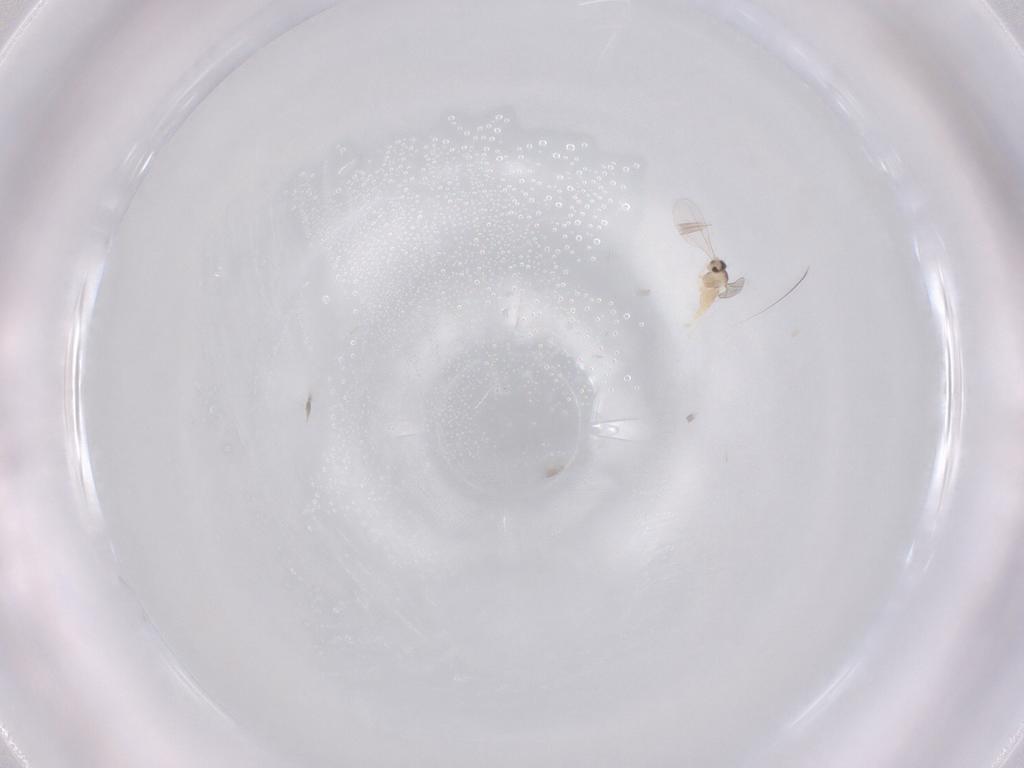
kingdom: Animalia
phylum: Arthropoda
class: Insecta
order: Diptera
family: Cecidomyiidae
